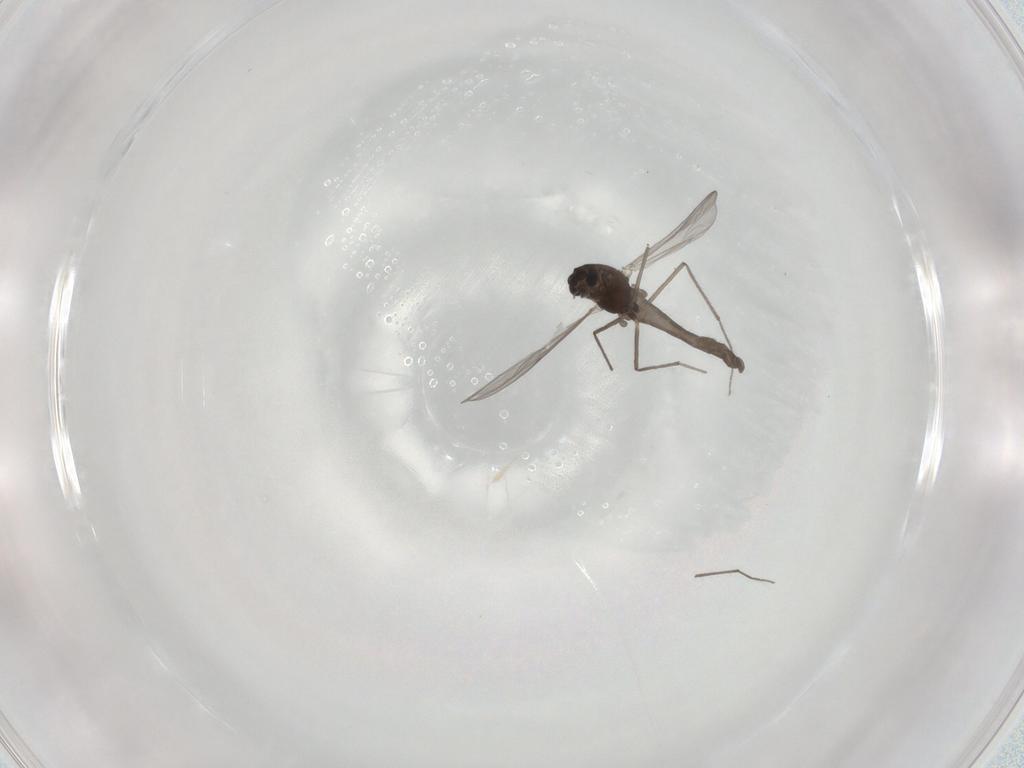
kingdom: Animalia
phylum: Arthropoda
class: Insecta
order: Diptera
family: Chironomidae
